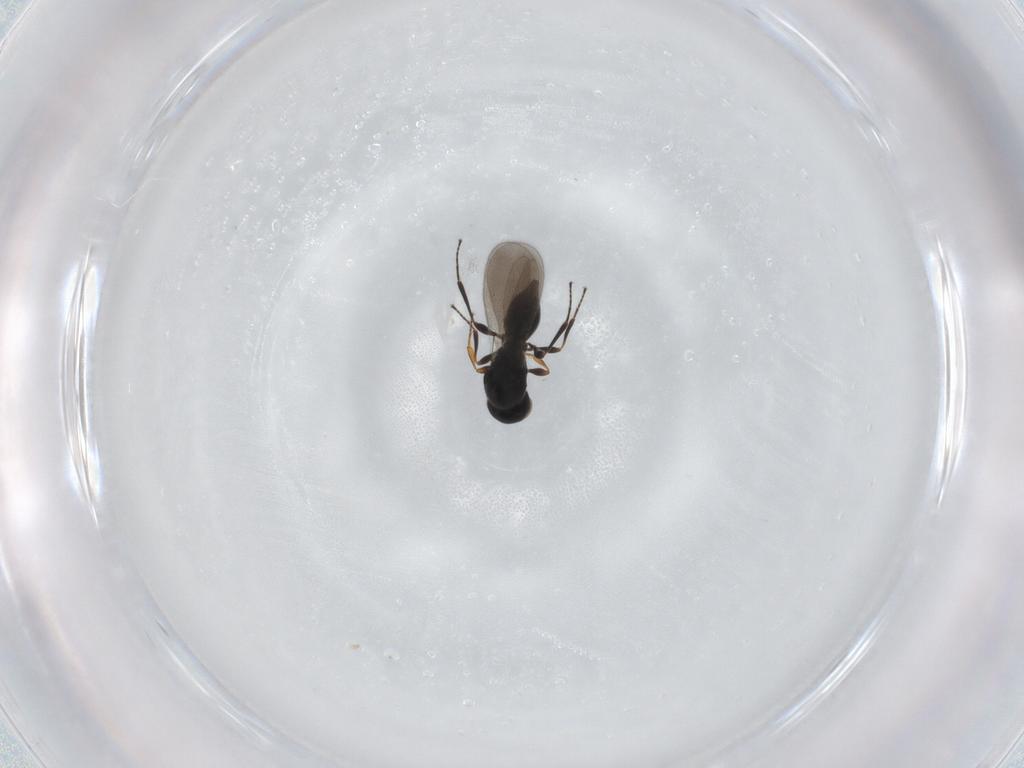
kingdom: Animalia
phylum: Arthropoda
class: Insecta
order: Hymenoptera
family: Platygastridae
